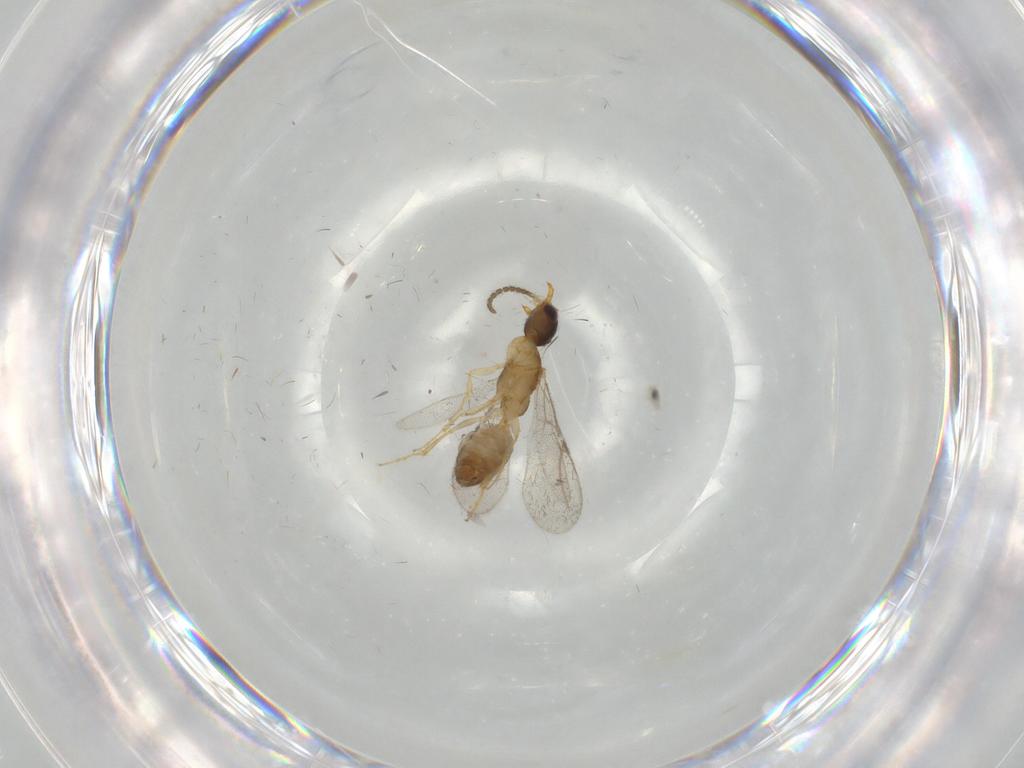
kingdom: Animalia
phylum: Arthropoda
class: Insecta
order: Hymenoptera
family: Bethylidae
